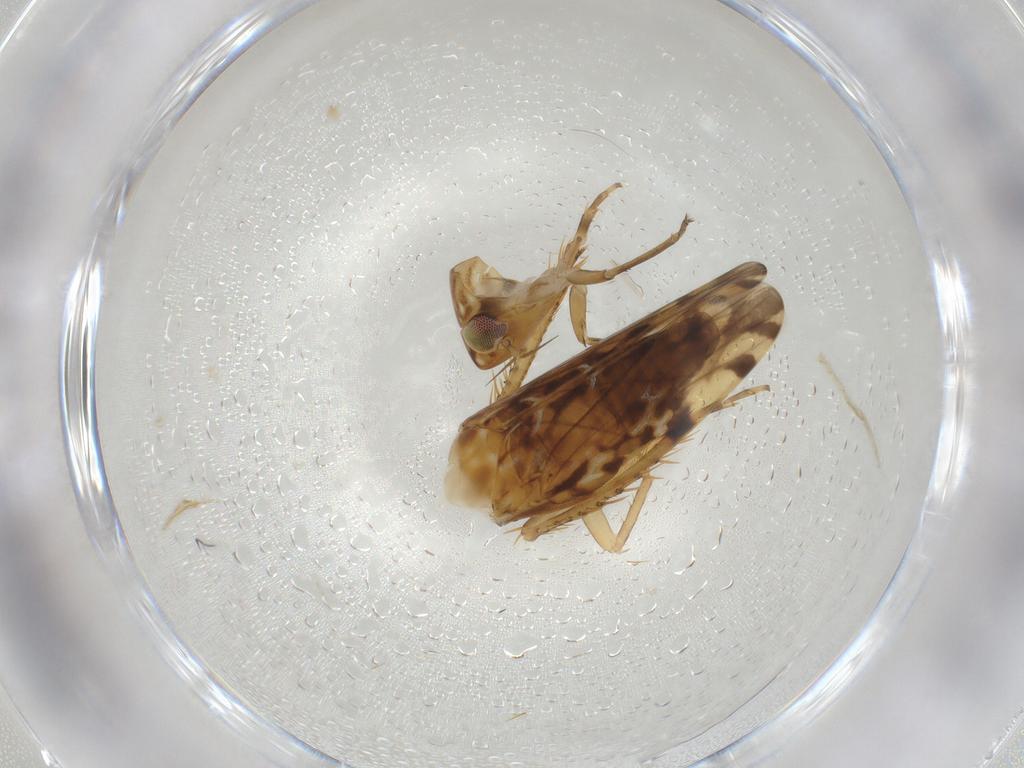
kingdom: Animalia
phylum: Arthropoda
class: Insecta
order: Hemiptera
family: Cicadellidae
